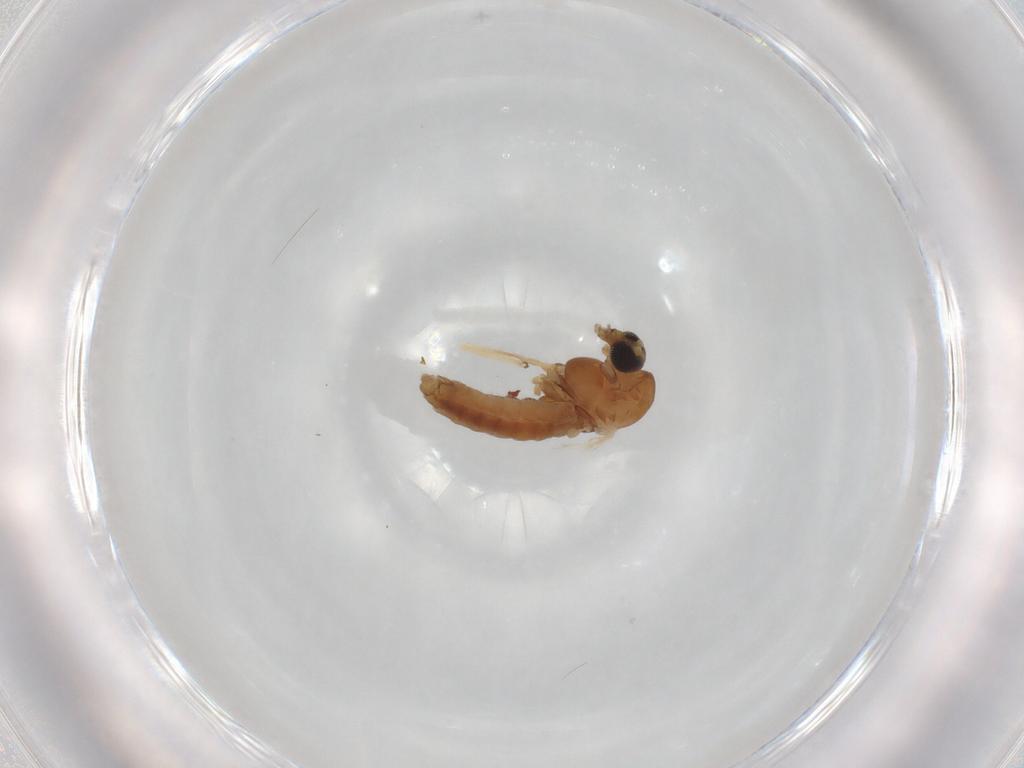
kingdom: Animalia
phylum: Arthropoda
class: Insecta
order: Diptera
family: Chironomidae
